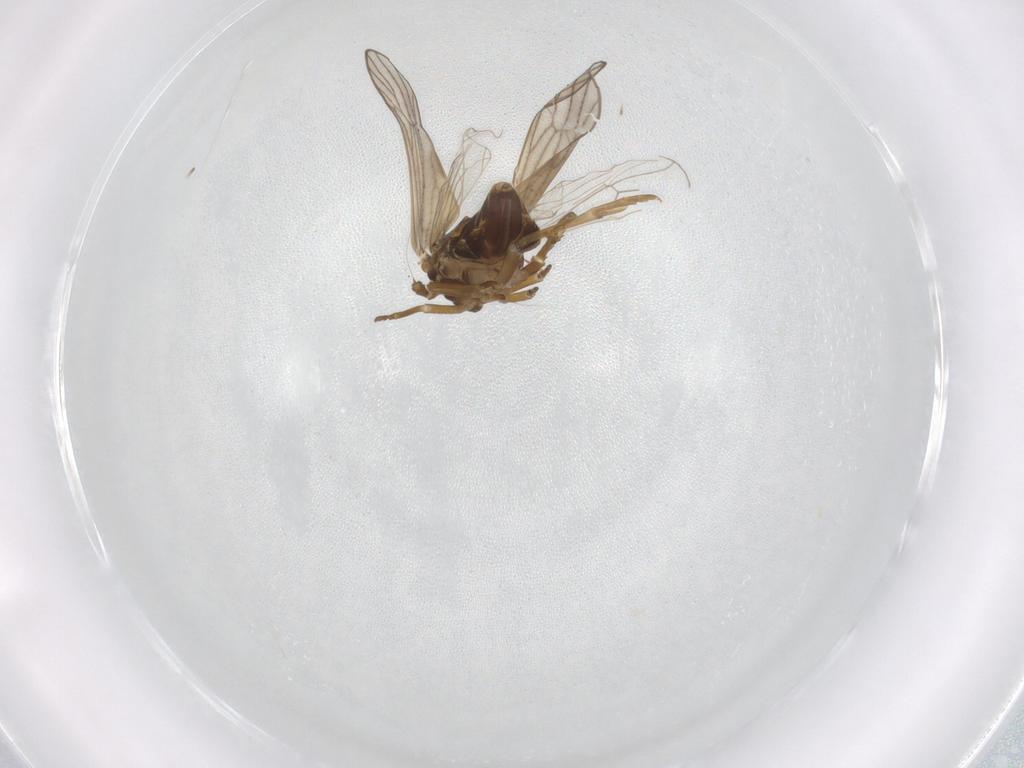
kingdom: Animalia
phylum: Arthropoda
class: Insecta
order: Hemiptera
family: Delphacidae
